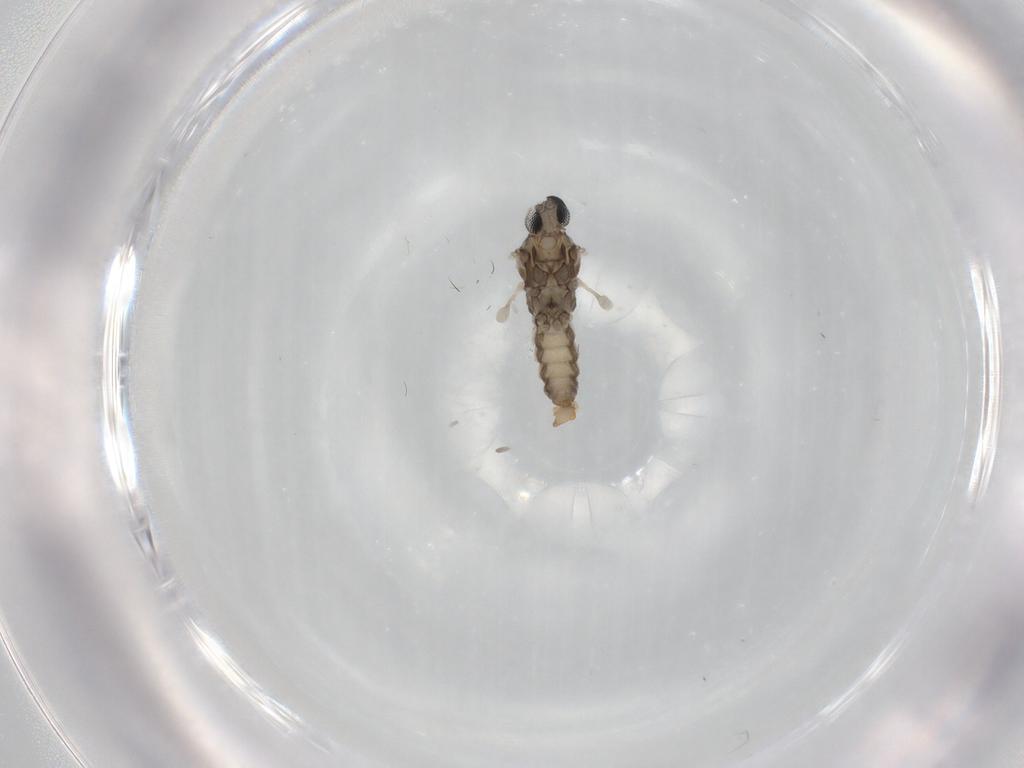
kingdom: Animalia
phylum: Arthropoda
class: Insecta
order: Diptera
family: Cecidomyiidae
